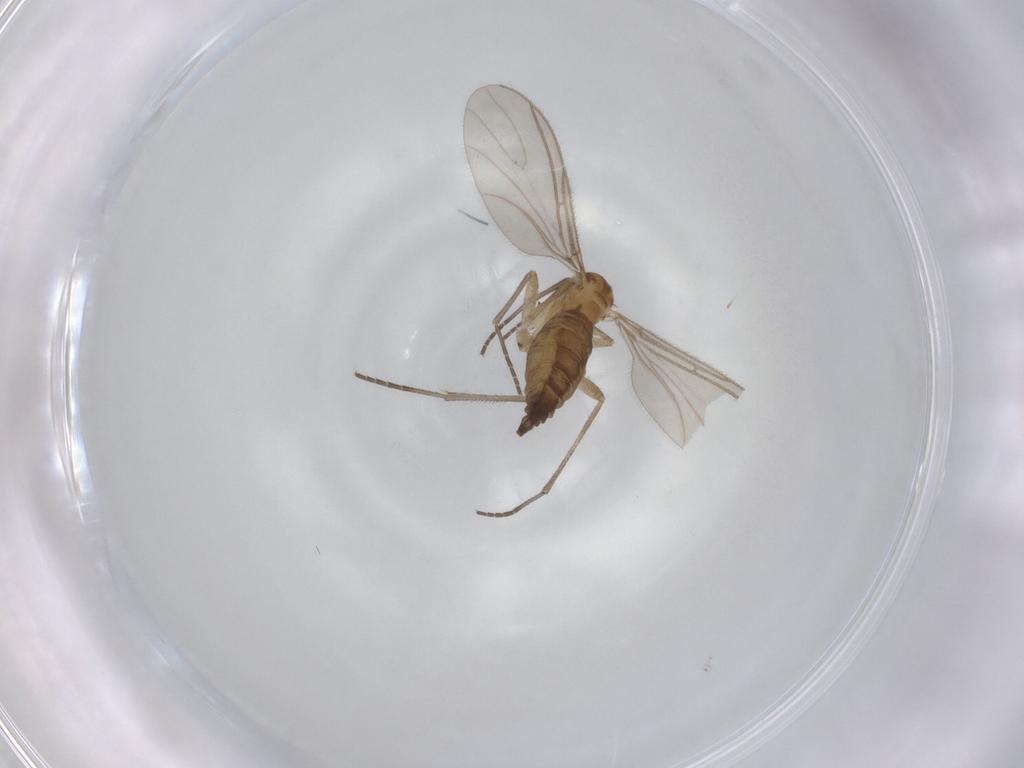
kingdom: Animalia
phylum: Arthropoda
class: Insecta
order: Diptera
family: Sciaridae
